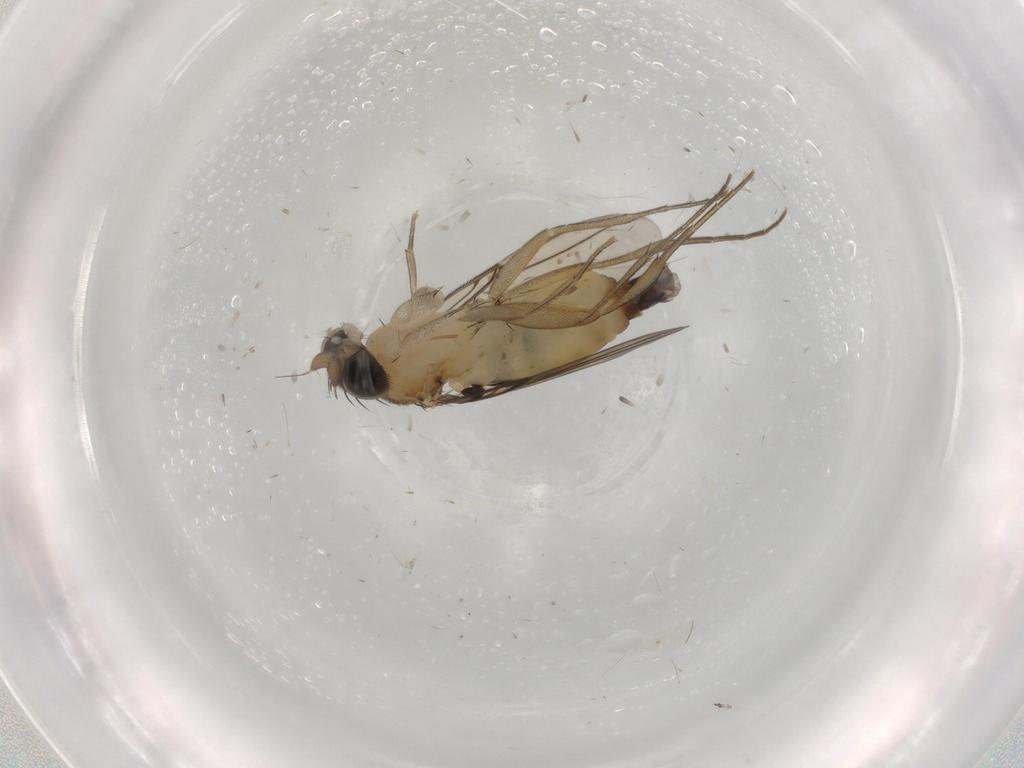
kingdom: Animalia
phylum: Arthropoda
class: Insecta
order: Diptera
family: Phoridae
